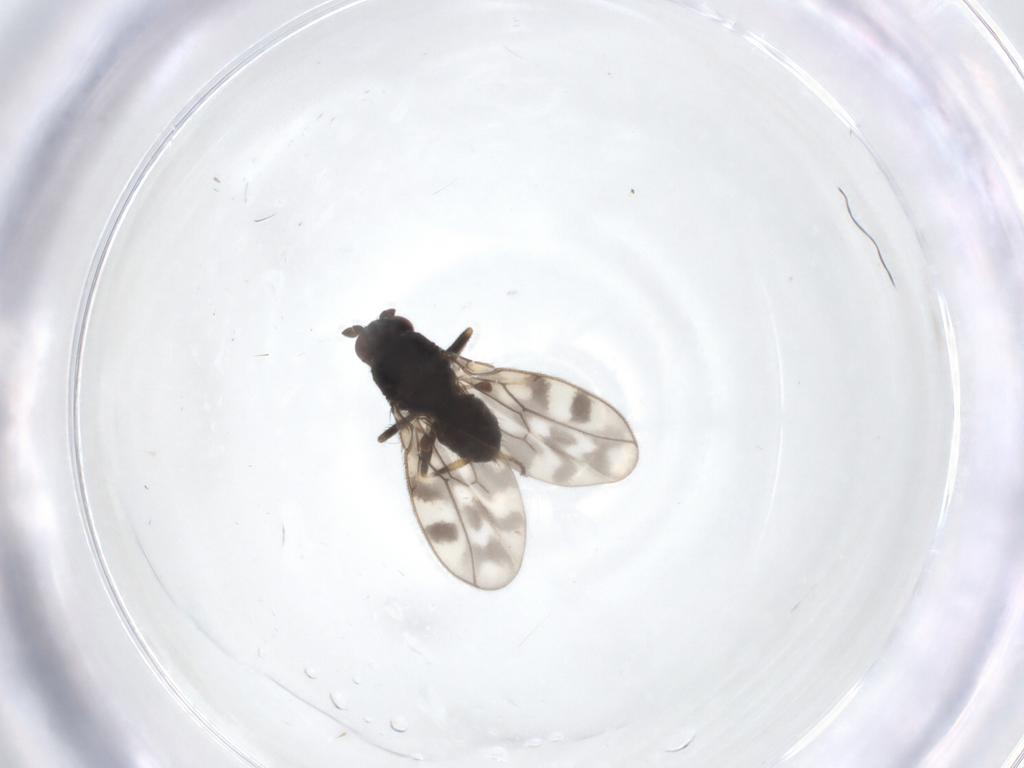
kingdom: Animalia
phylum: Arthropoda
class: Insecta
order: Diptera
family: Sphaeroceridae
